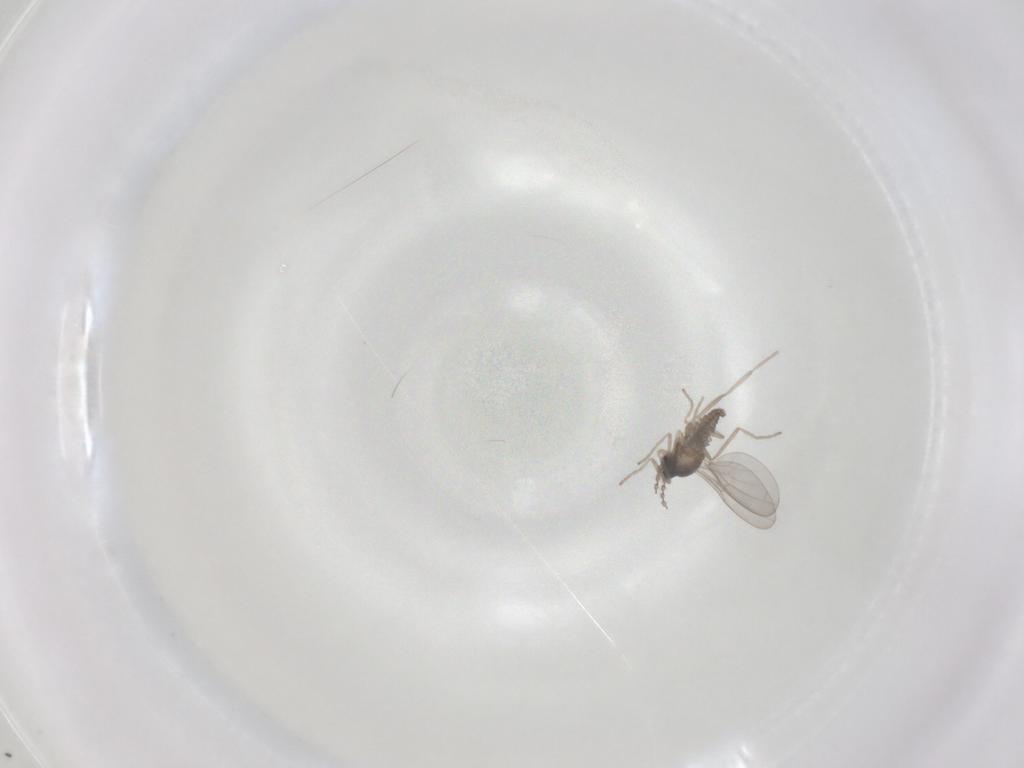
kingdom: Animalia
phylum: Arthropoda
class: Insecta
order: Diptera
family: Cecidomyiidae
